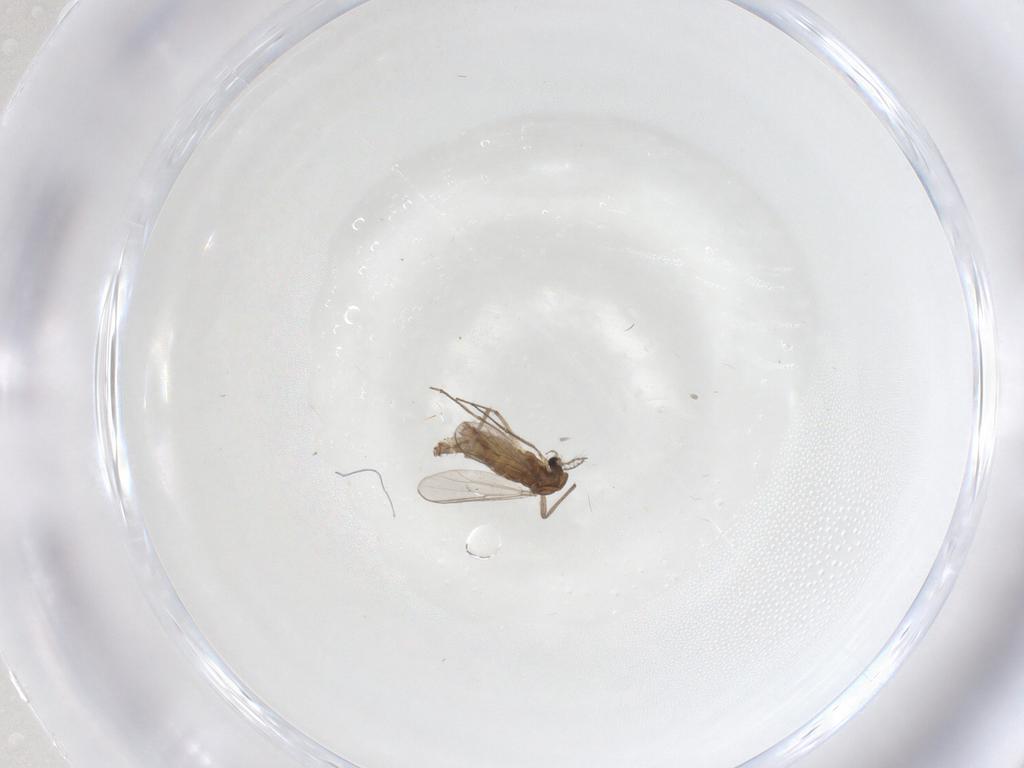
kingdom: Animalia
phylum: Arthropoda
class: Insecta
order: Diptera
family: Chironomidae
